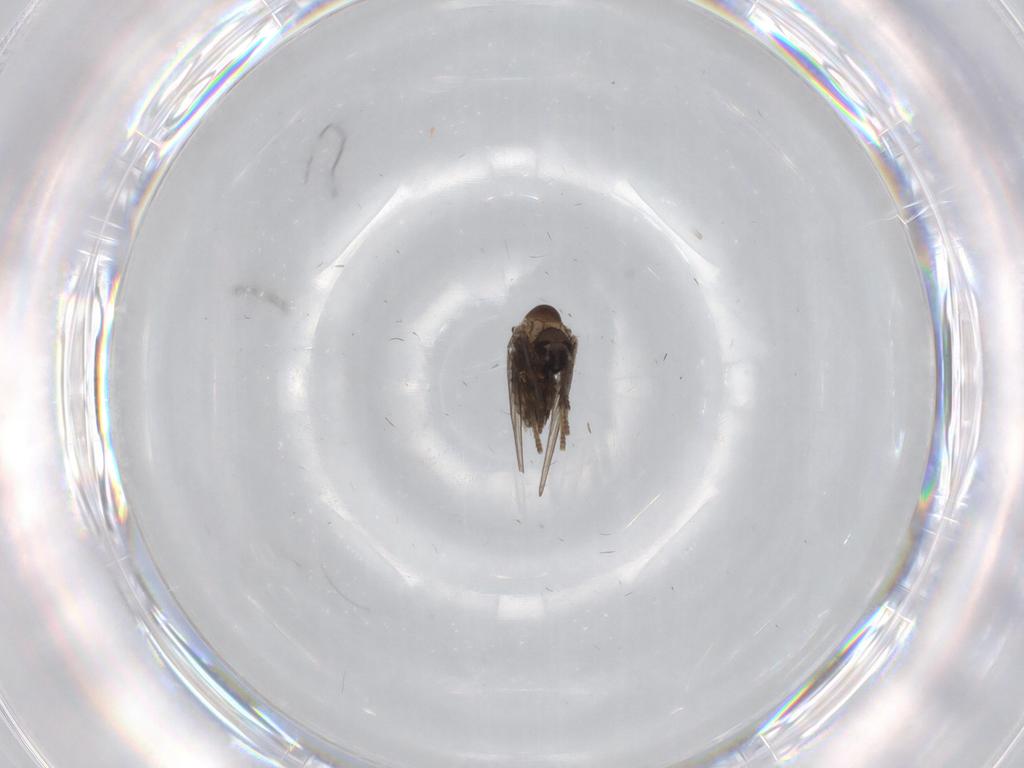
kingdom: Animalia
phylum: Arthropoda
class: Insecta
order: Diptera
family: Psychodidae
